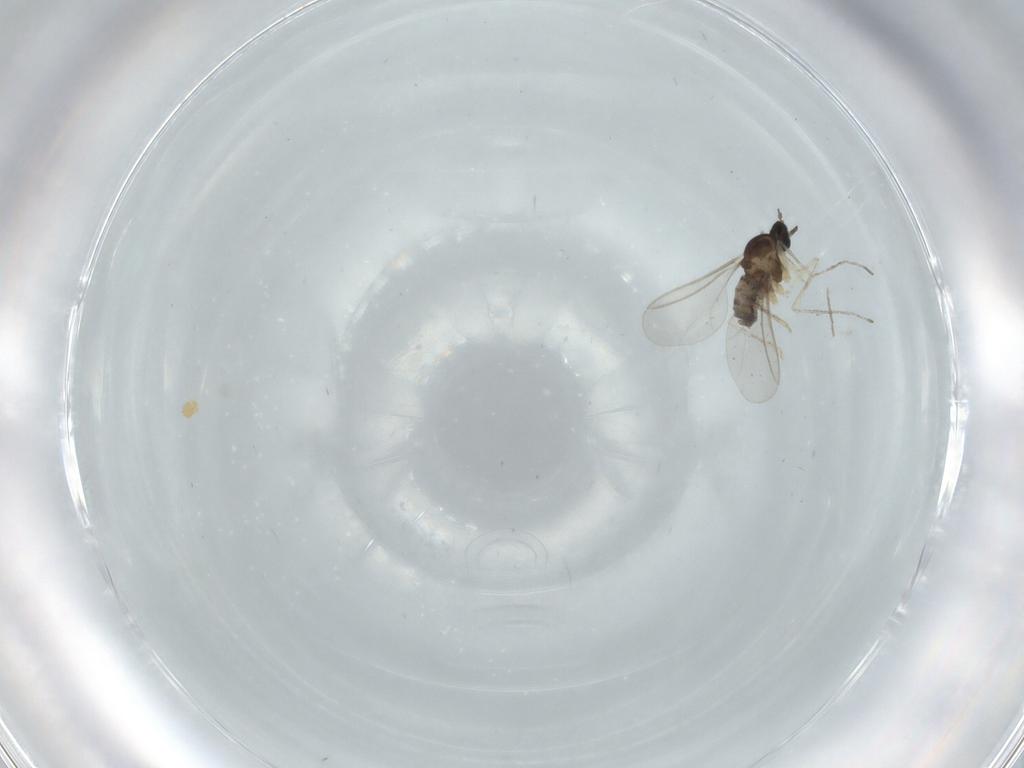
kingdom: Animalia
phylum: Arthropoda
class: Insecta
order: Diptera
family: Cecidomyiidae
